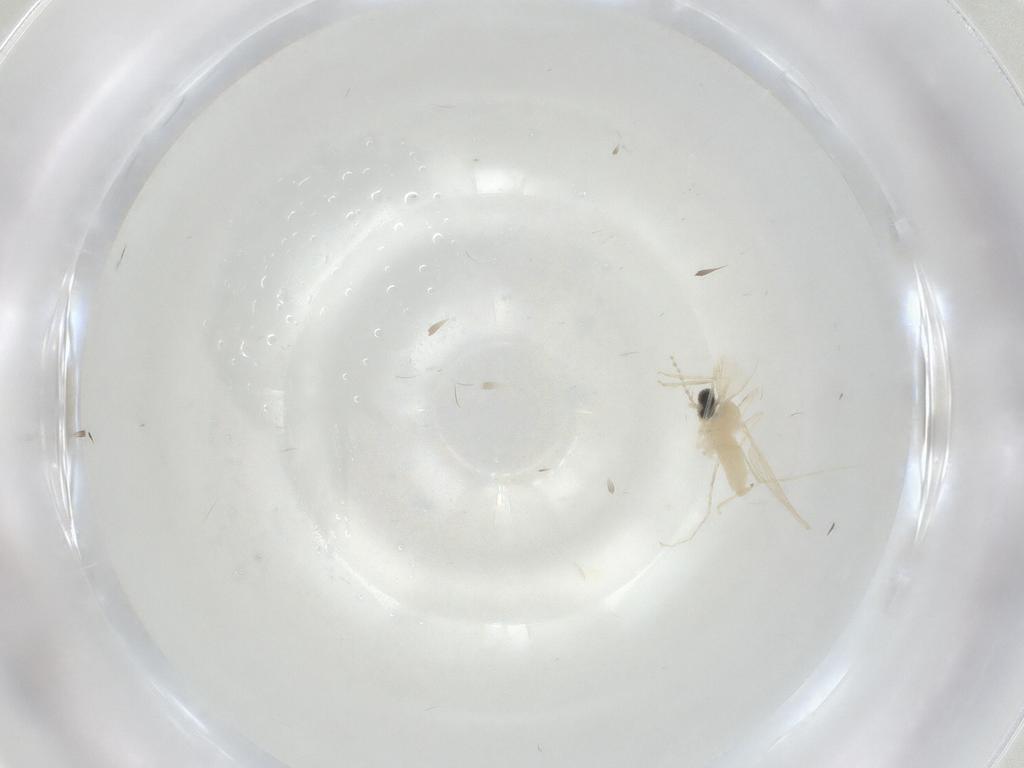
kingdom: Animalia
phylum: Arthropoda
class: Insecta
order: Diptera
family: Cecidomyiidae
